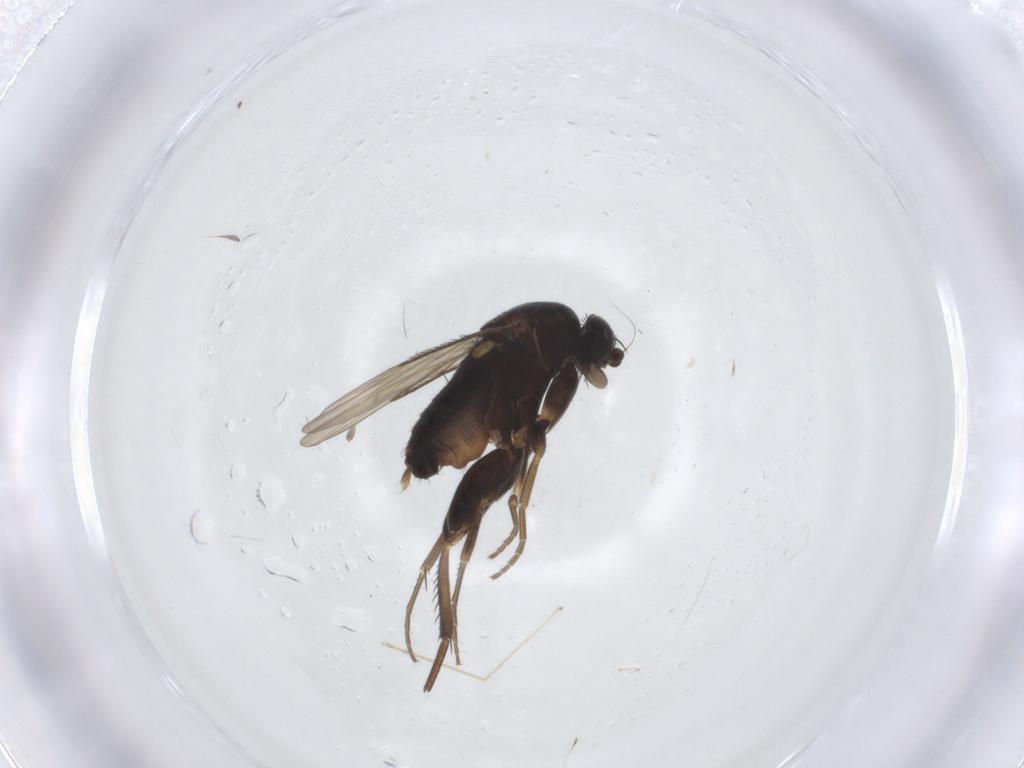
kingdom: Animalia
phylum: Arthropoda
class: Insecta
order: Diptera
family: Phoridae
